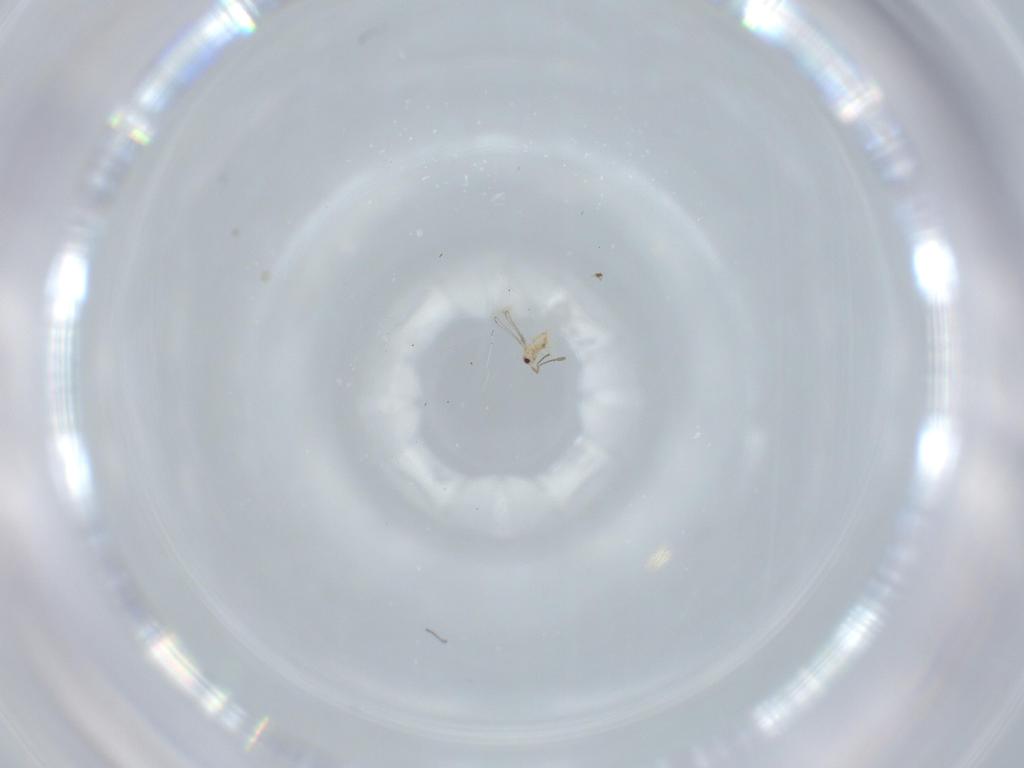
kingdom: Animalia
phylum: Arthropoda
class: Insecta
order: Hymenoptera
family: Mymaridae
